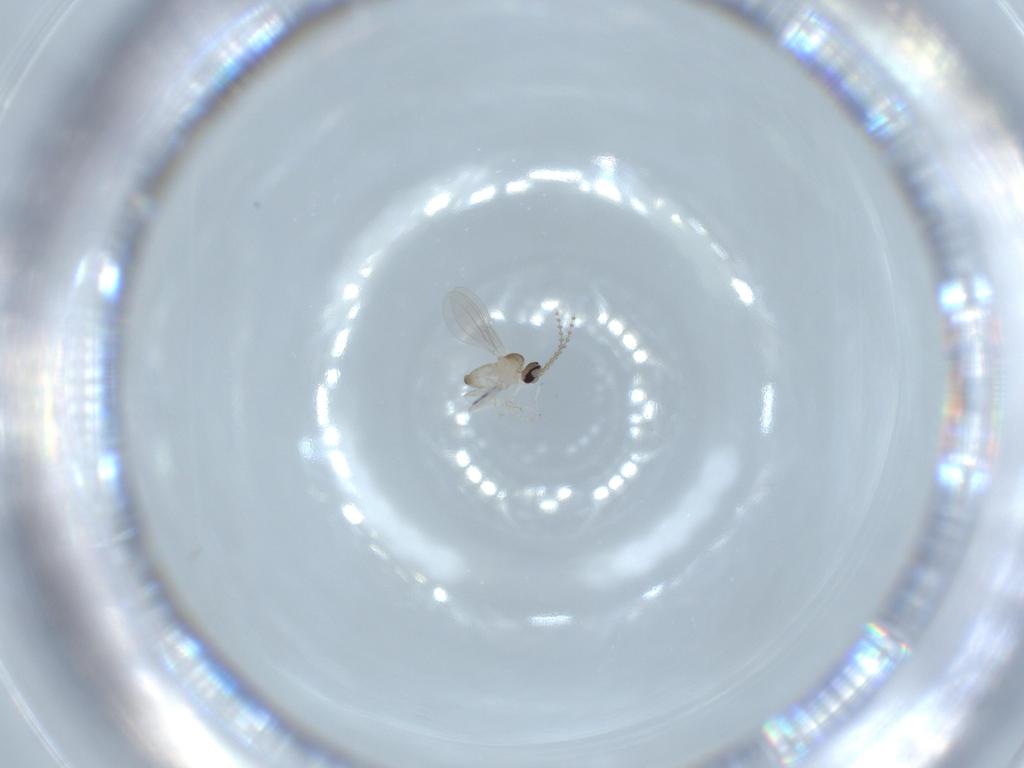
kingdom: Animalia
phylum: Arthropoda
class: Insecta
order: Diptera
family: Cecidomyiidae
